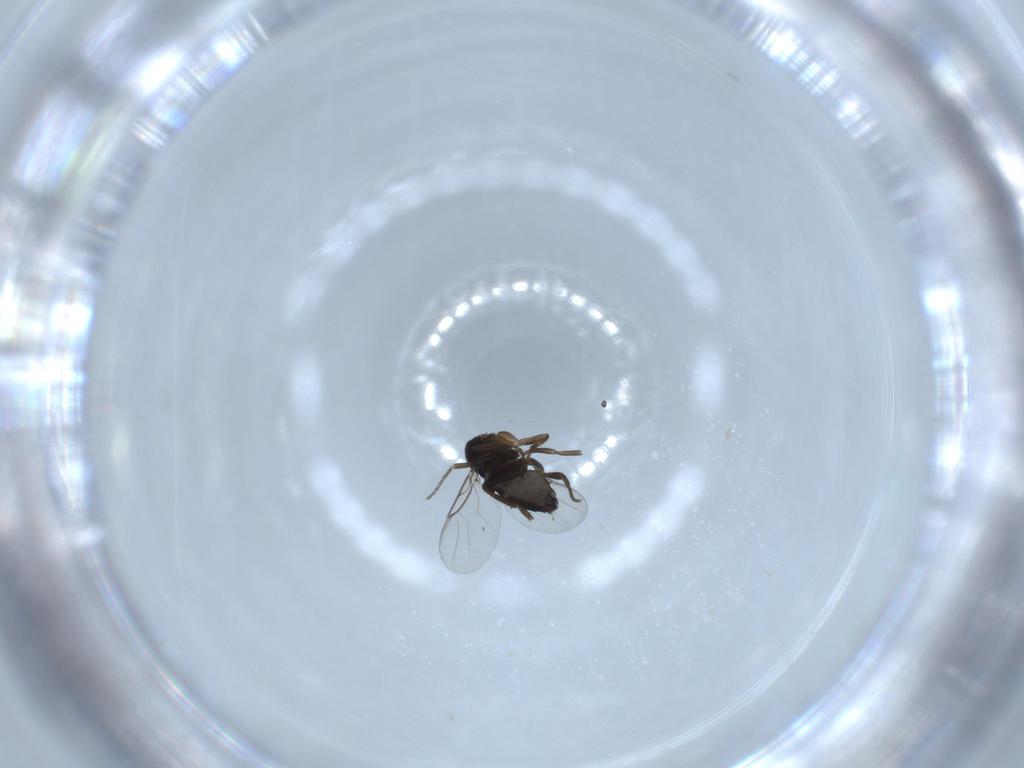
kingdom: Animalia
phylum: Arthropoda
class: Insecta
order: Diptera
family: Phoridae
